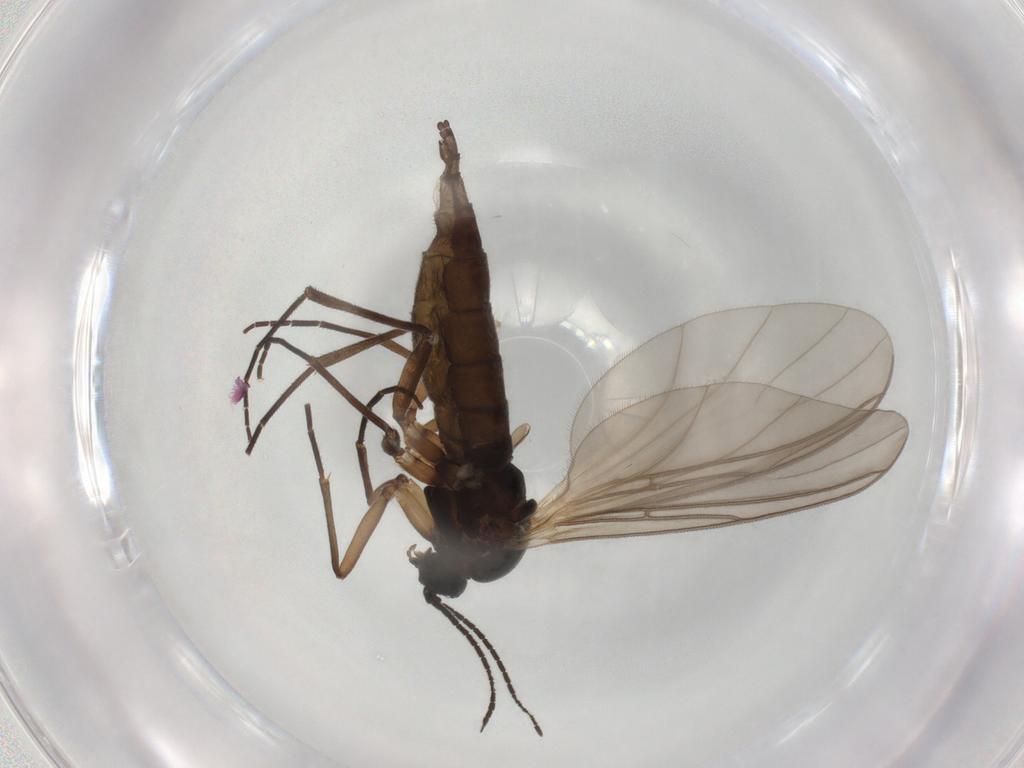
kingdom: Animalia
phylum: Arthropoda
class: Insecta
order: Diptera
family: Sciaridae
